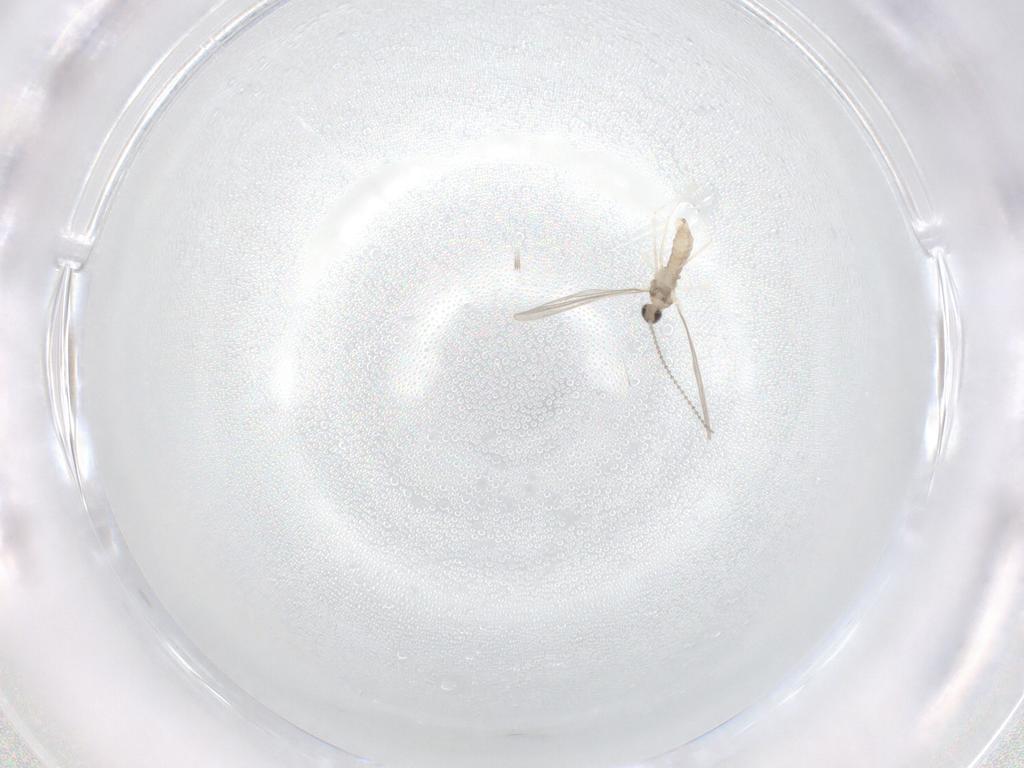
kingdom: Animalia
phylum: Arthropoda
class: Insecta
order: Diptera
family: Cecidomyiidae
